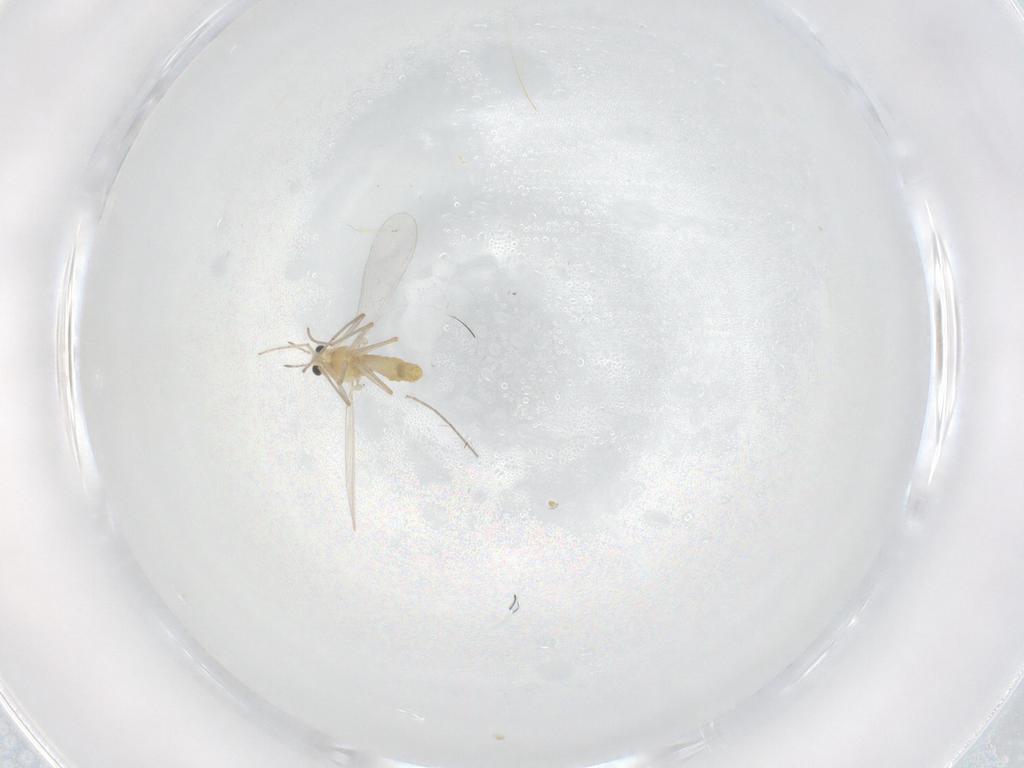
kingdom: Animalia
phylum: Arthropoda
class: Insecta
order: Diptera
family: Chironomidae
